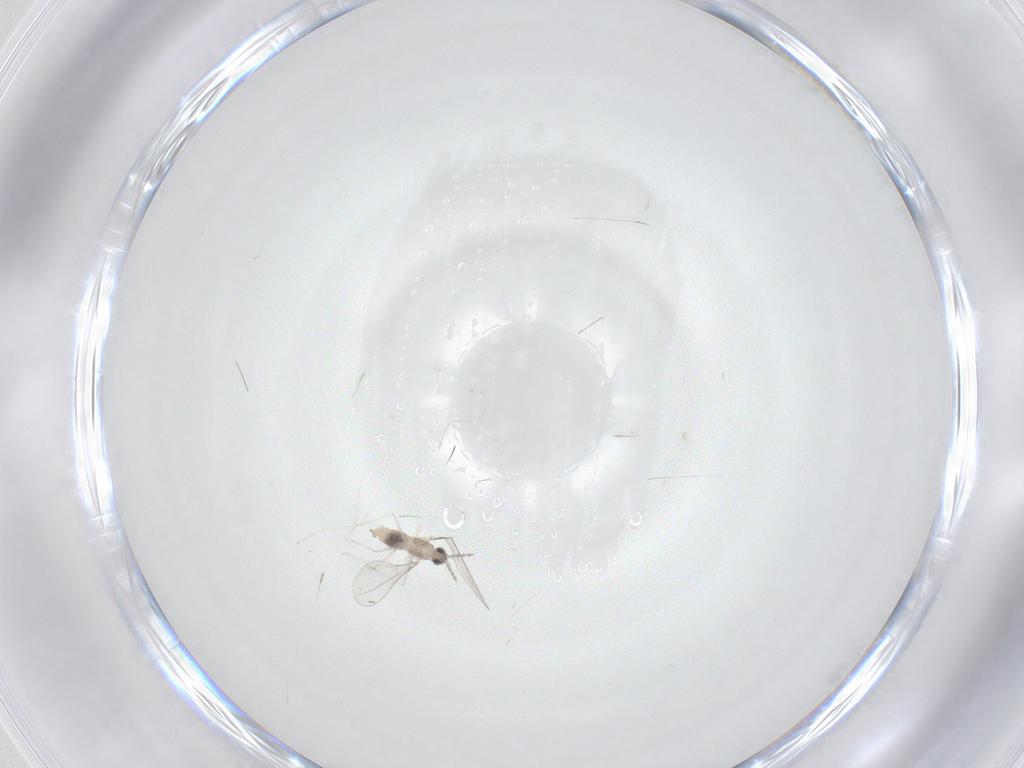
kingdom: Animalia
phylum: Arthropoda
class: Insecta
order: Diptera
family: Cecidomyiidae
